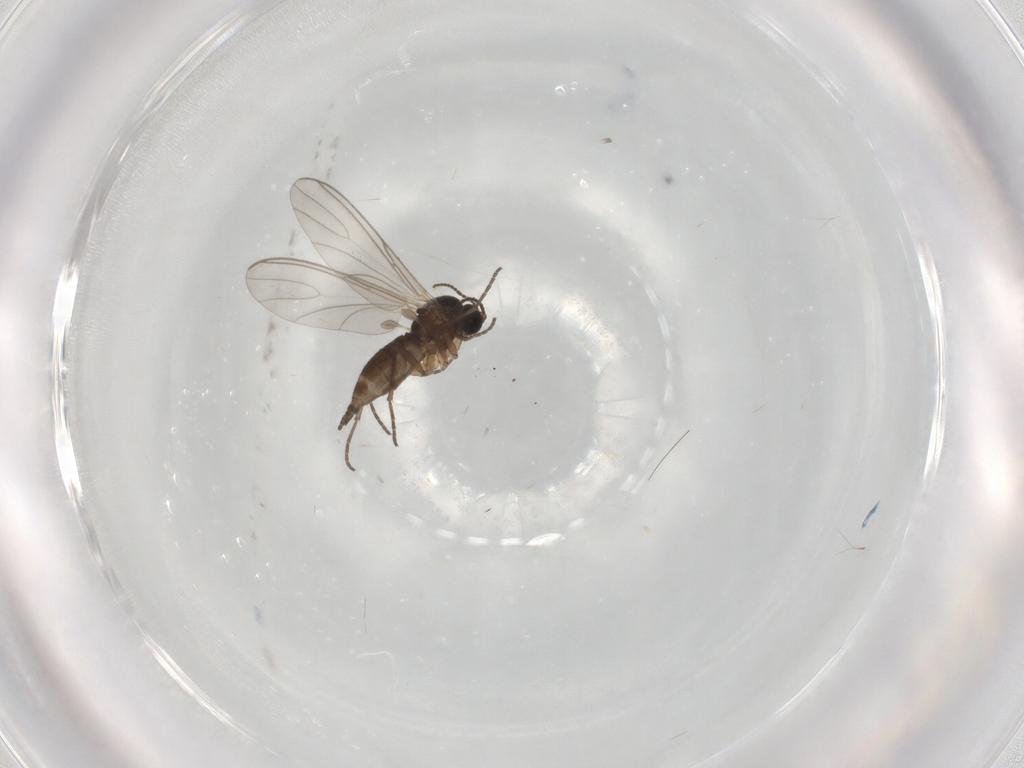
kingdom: Animalia
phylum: Arthropoda
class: Insecta
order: Diptera
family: Sciaridae
